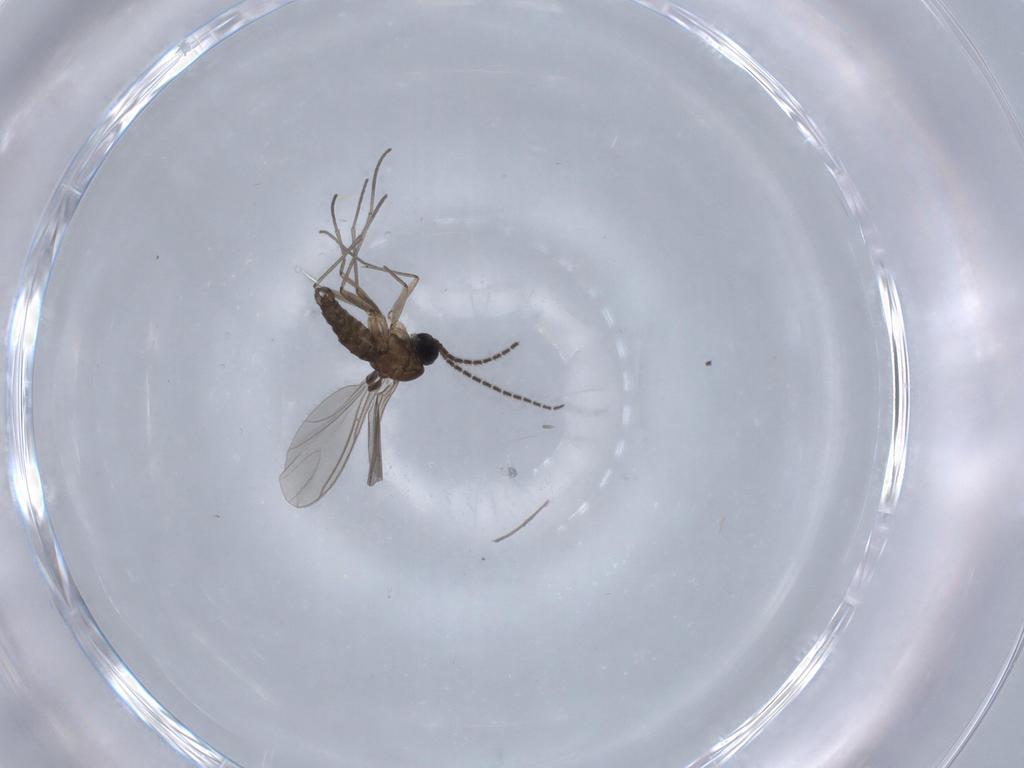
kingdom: Animalia
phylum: Arthropoda
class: Insecta
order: Diptera
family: Sciaridae
